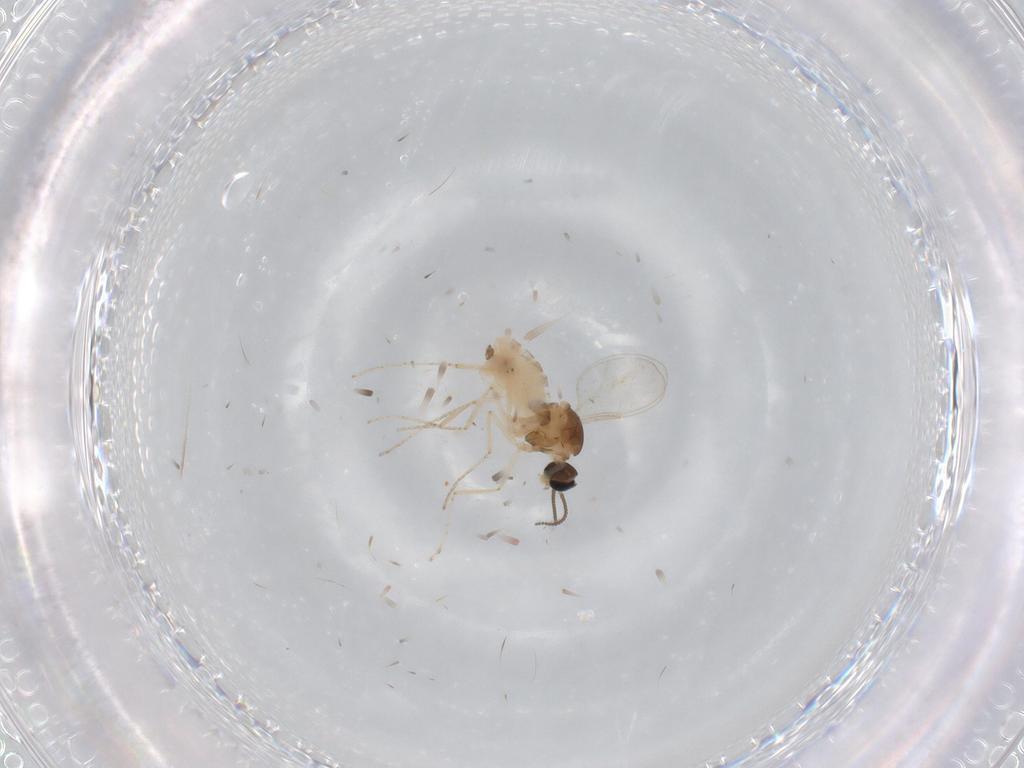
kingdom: Animalia
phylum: Arthropoda
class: Insecta
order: Diptera
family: Cecidomyiidae
